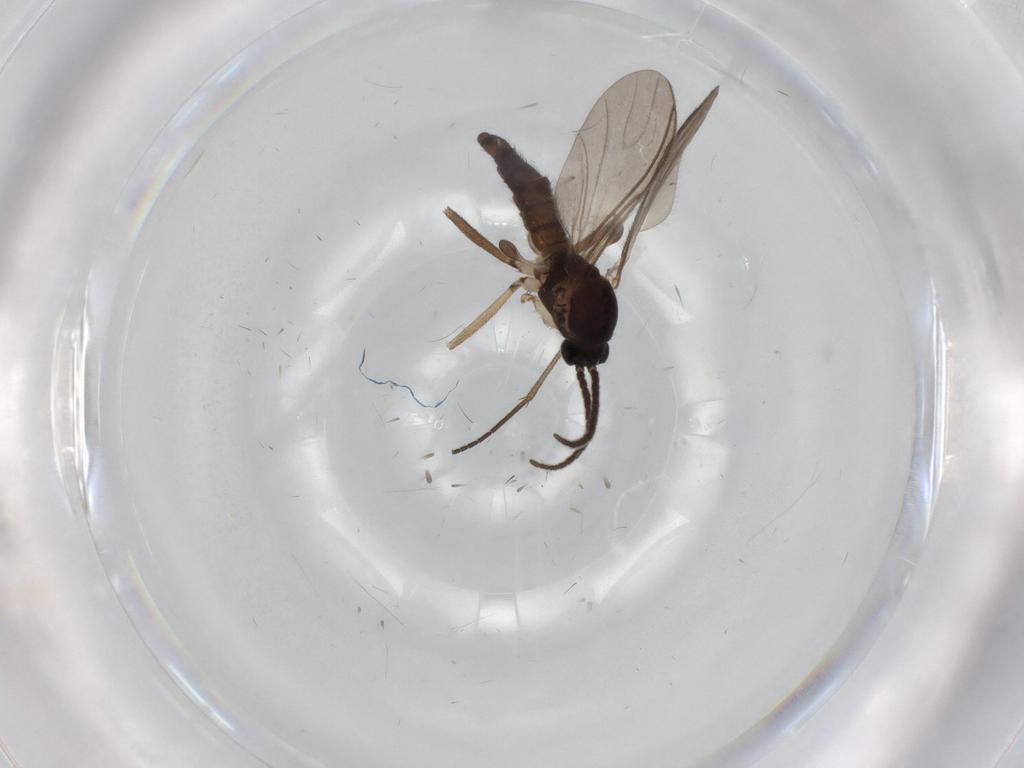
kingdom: Animalia
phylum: Arthropoda
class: Insecta
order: Diptera
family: Sciaridae
